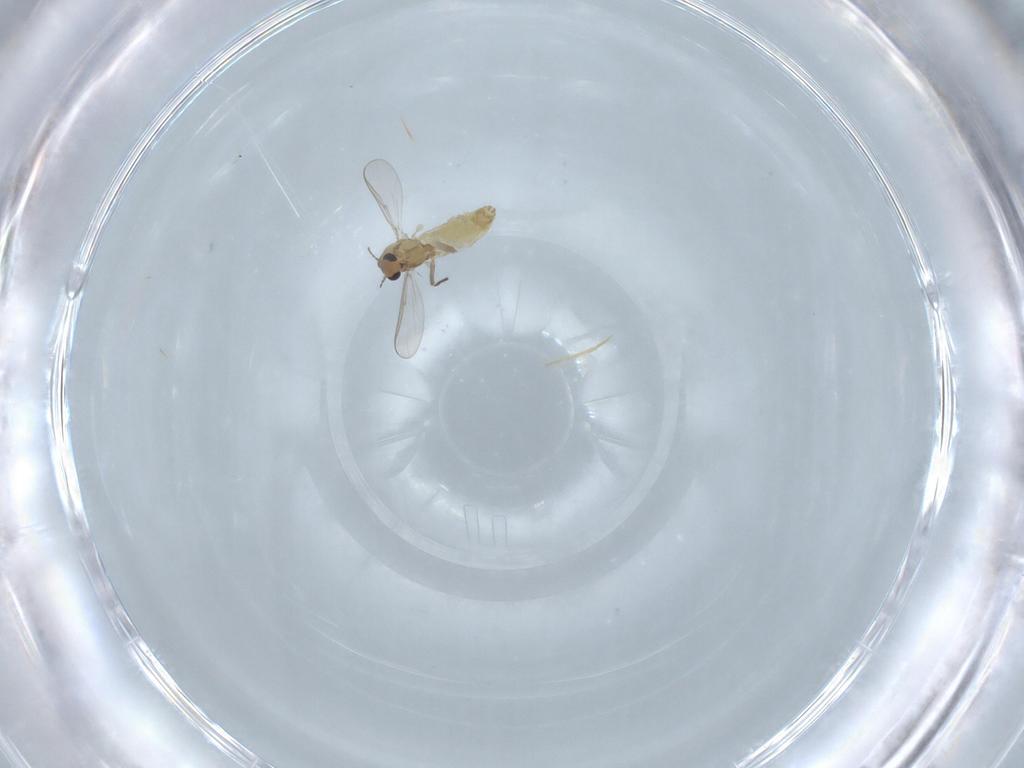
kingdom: Animalia
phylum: Arthropoda
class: Insecta
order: Diptera
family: Chironomidae
